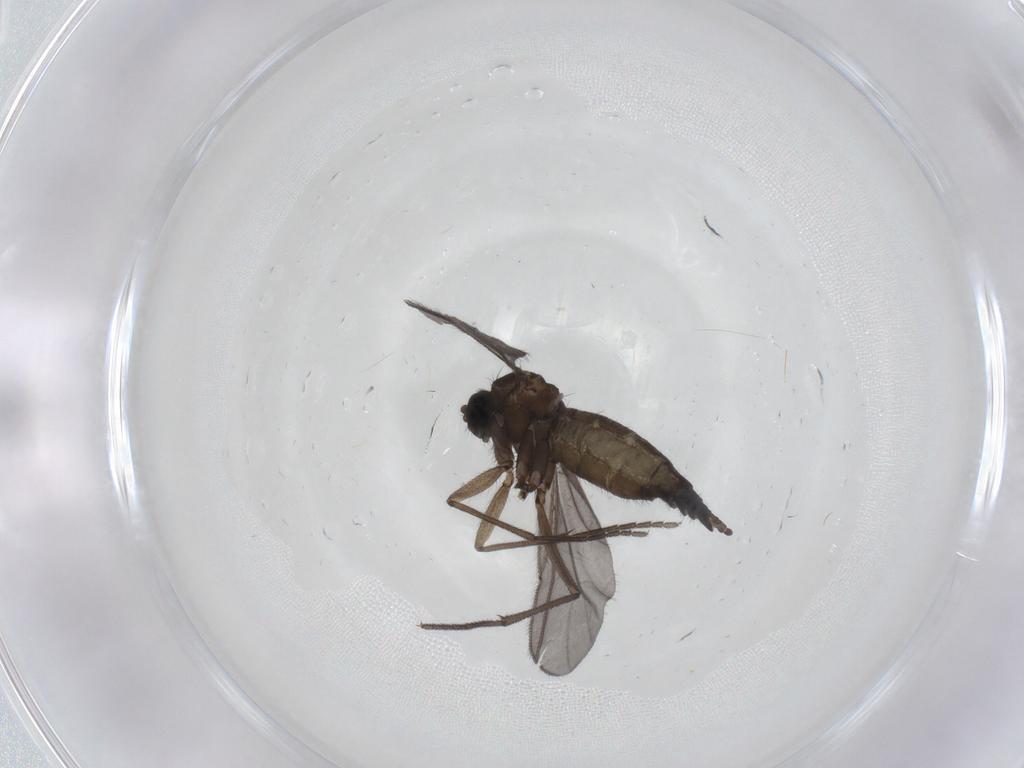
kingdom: Animalia
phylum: Arthropoda
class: Insecta
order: Diptera
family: Sciaridae
